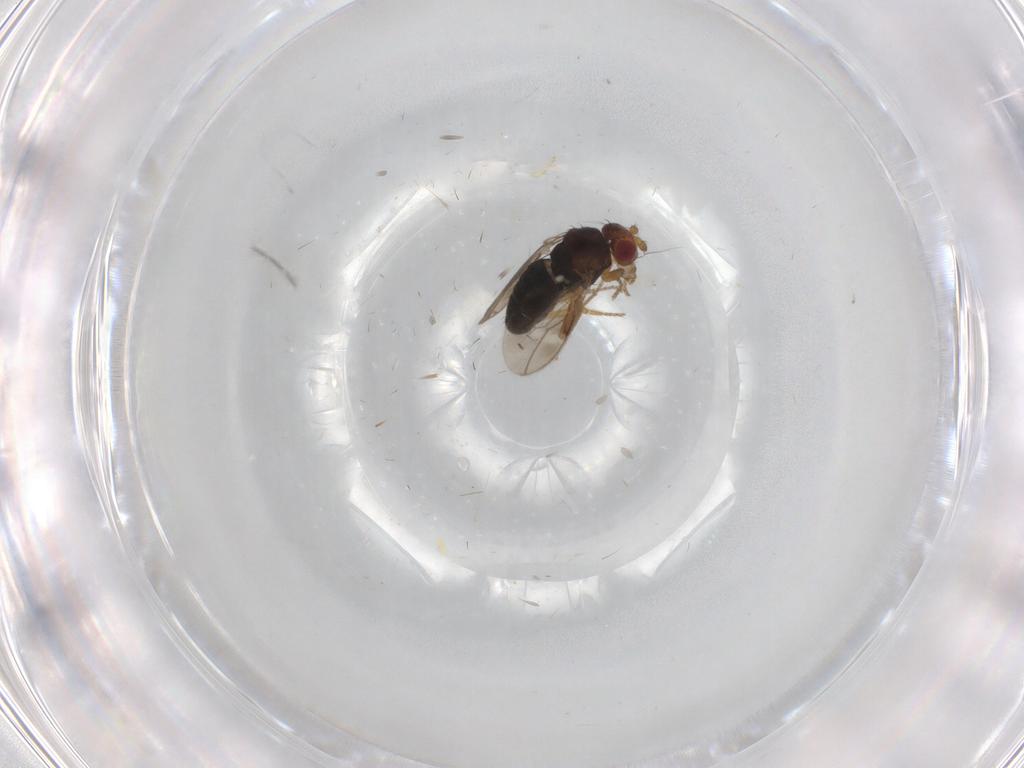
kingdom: Animalia
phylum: Arthropoda
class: Insecta
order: Diptera
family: Sphaeroceridae
